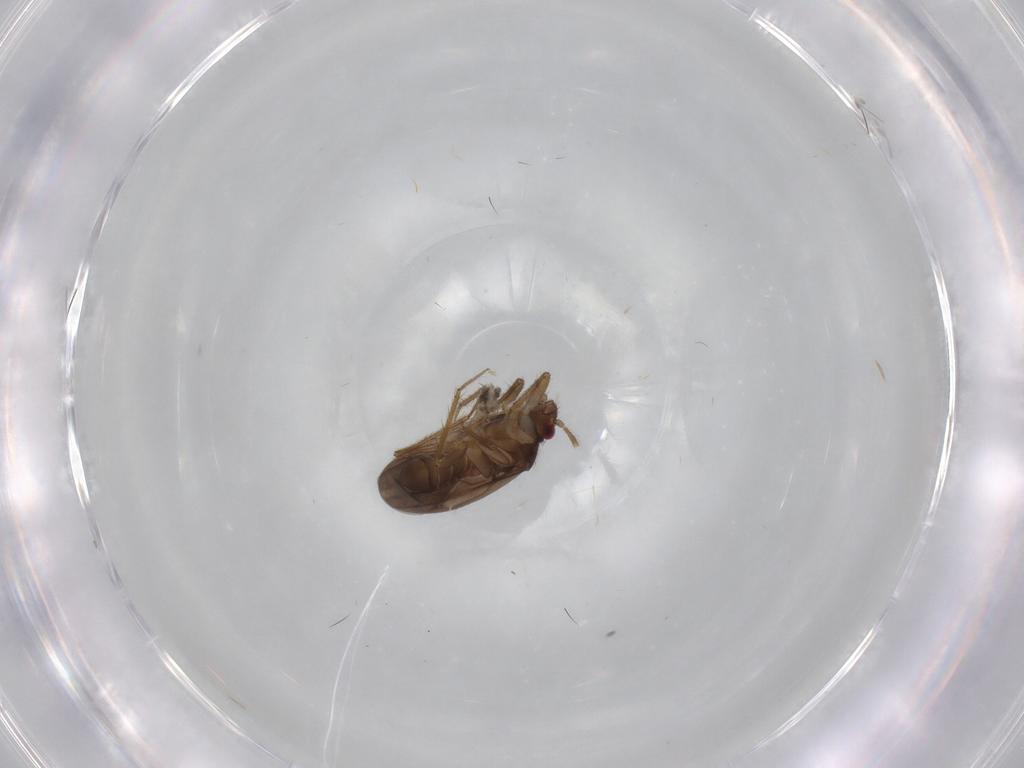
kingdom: Animalia
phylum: Arthropoda
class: Insecta
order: Hemiptera
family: Ceratocombidae
